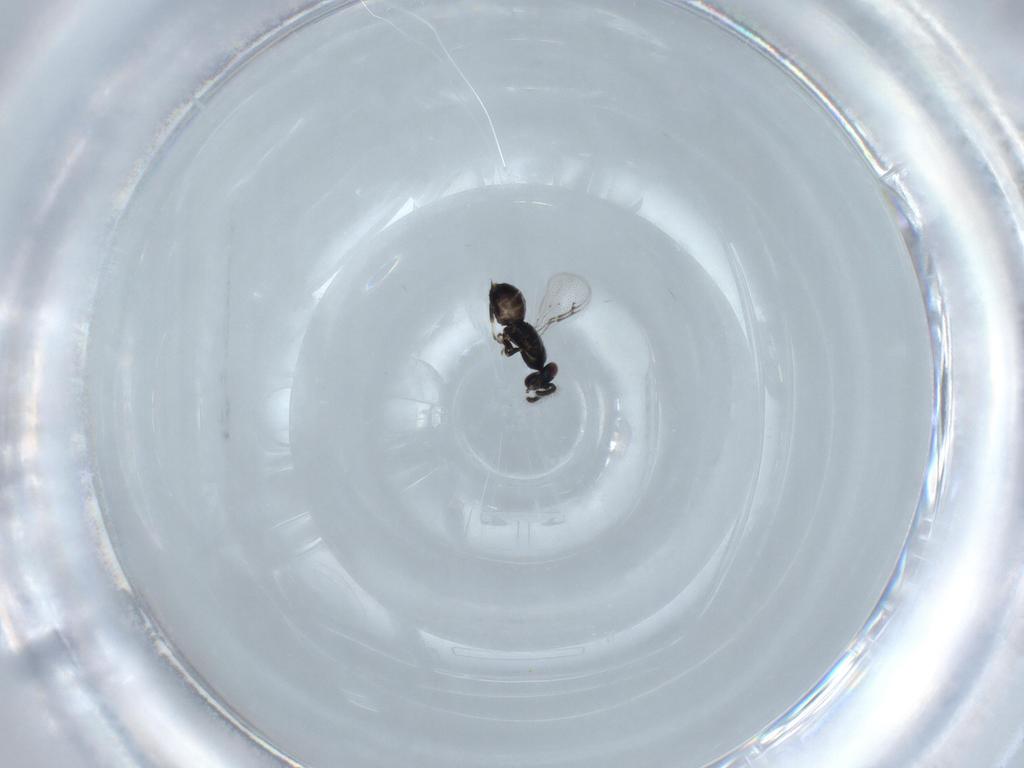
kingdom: Animalia
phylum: Arthropoda
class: Insecta
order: Hymenoptera
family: Pirenidae
